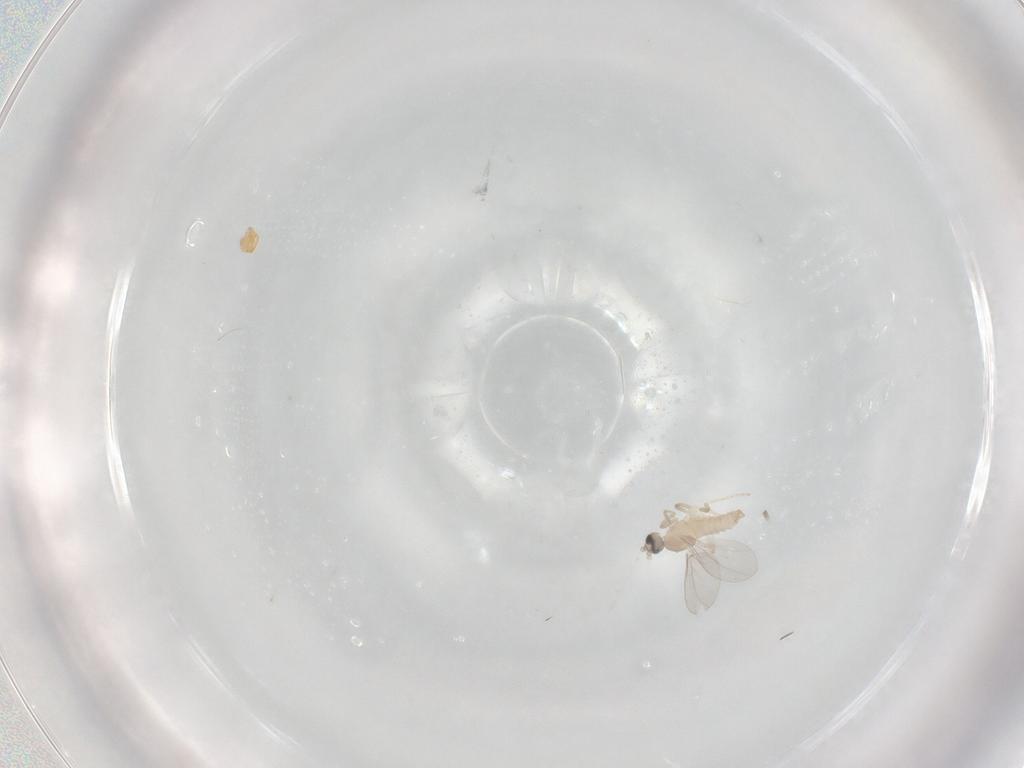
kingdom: Animalia
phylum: Arthropoda
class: Insecta
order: Diptera
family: Cecidomyiidae
